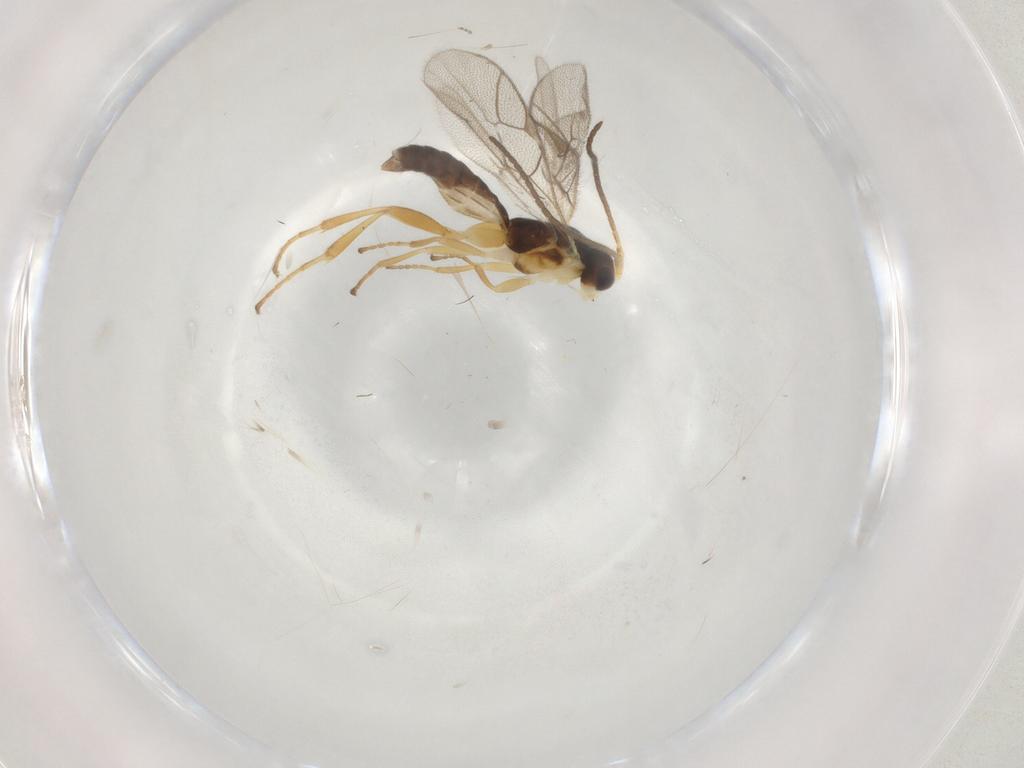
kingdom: Animalia
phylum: Arthropoda
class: Insecta
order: Hymenoptera
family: Ichneumonidae
